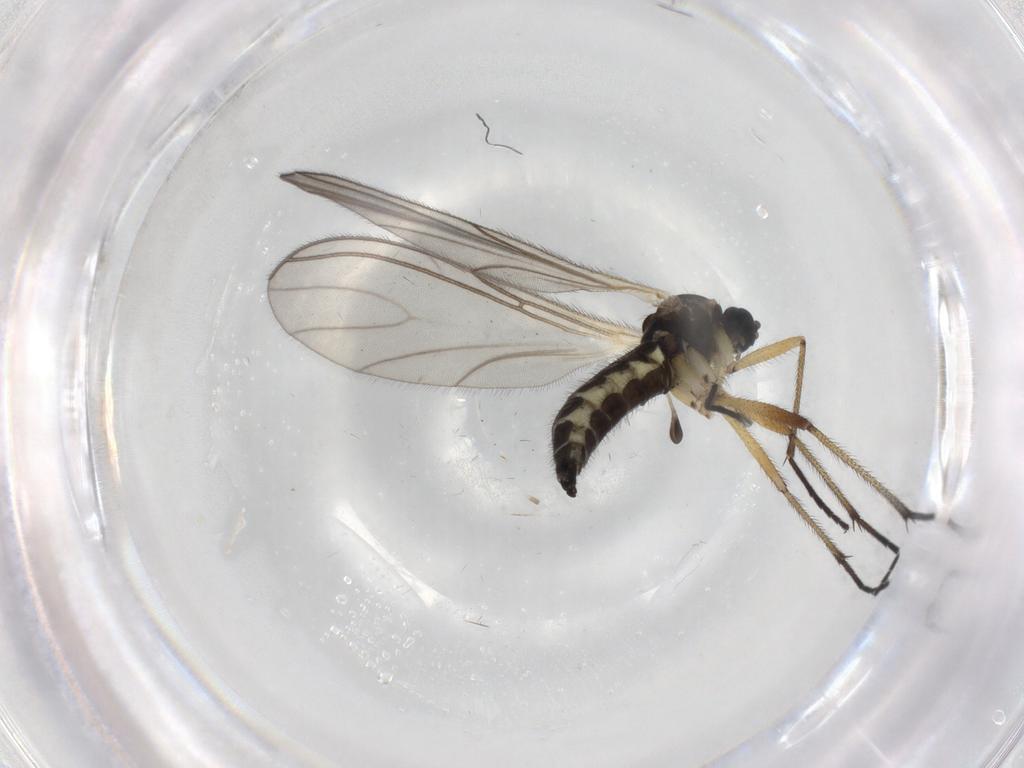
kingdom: Animalia
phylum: Arthropoda
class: Insecta
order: Diptera
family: Sciaridae
